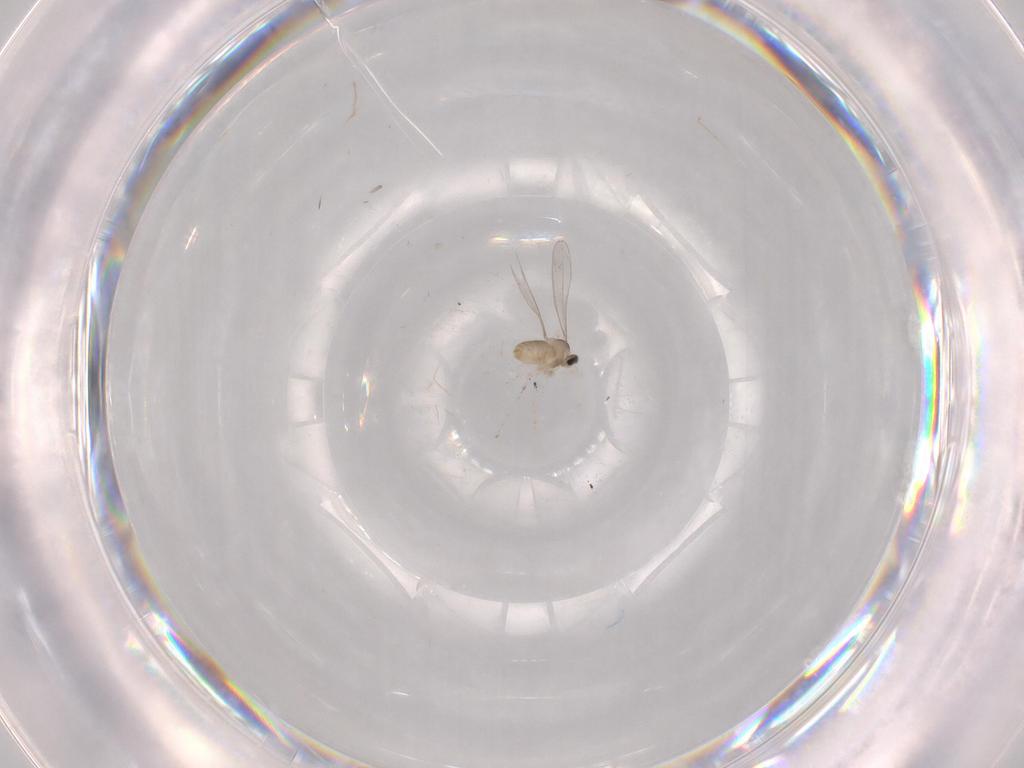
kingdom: Animalia
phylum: Arthropoda
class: Insecta
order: Diptera
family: Cecidomyiidae
